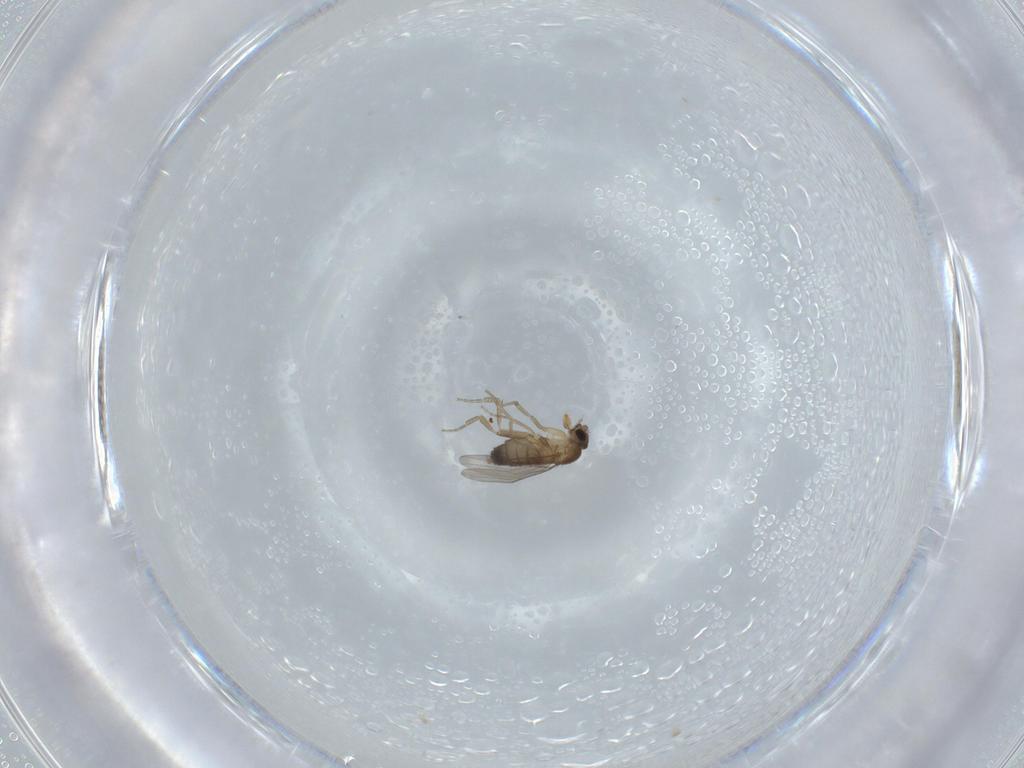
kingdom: Animalia
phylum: Arthropoda
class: Insecta
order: Diptera
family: Phoridae
